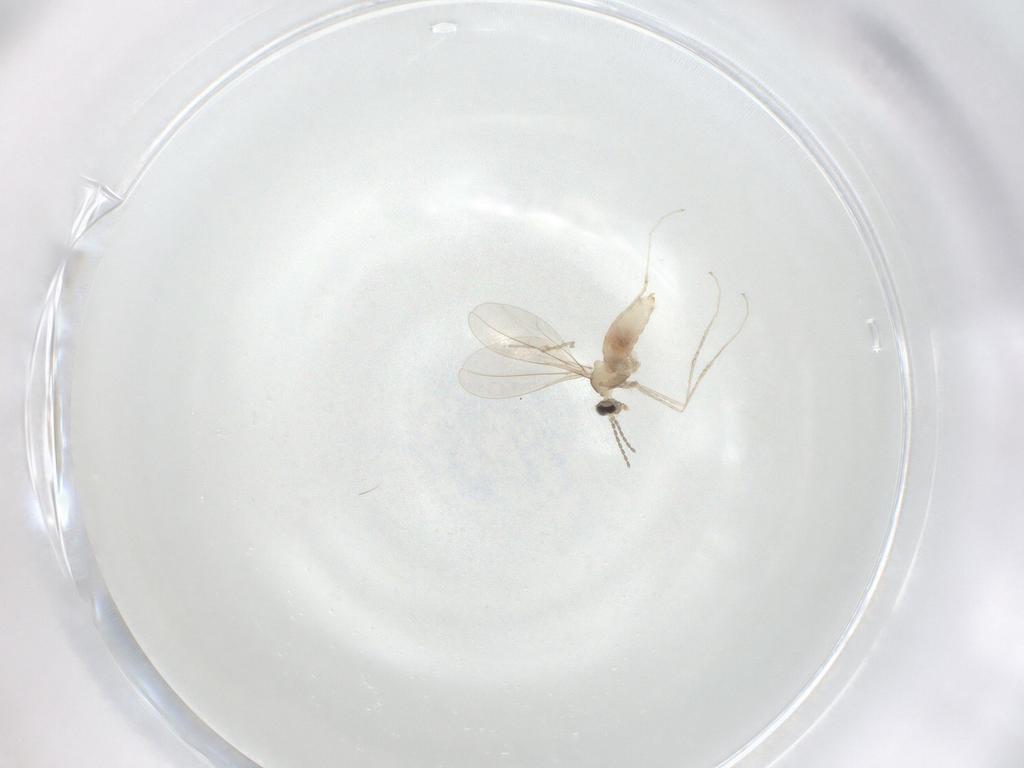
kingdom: Animalia
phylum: Arthropoda
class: Insecta
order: Diptera
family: Cecidomyiidae
